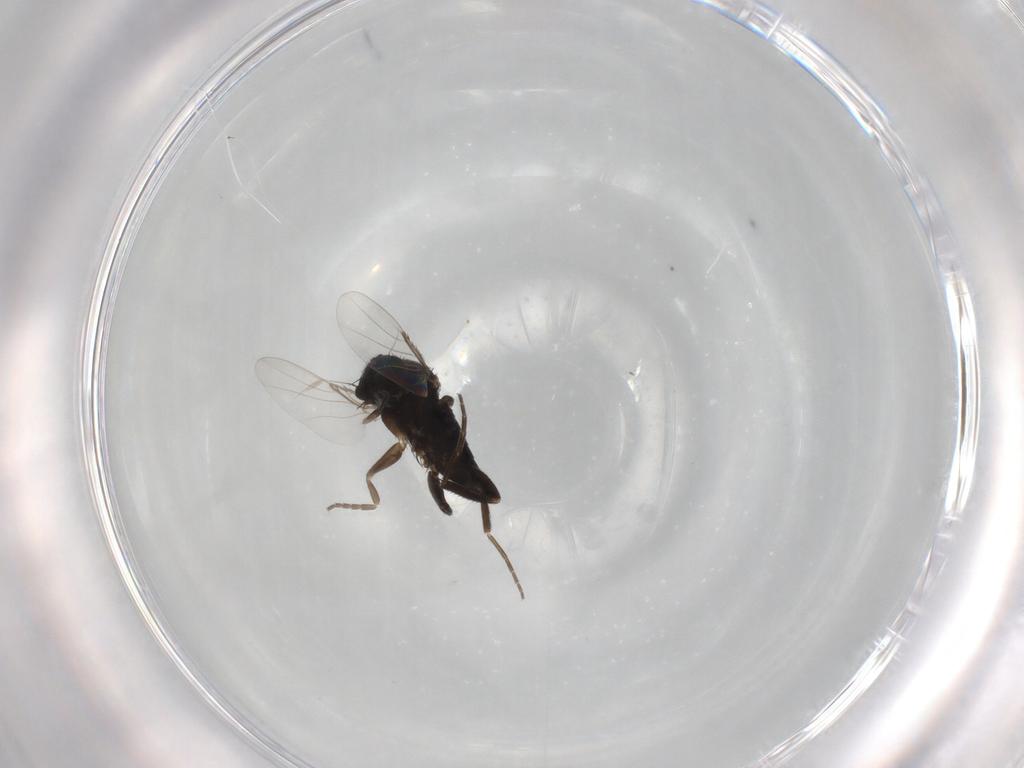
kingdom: Animalia
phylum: Arthropoda
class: Insecta
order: Diptera
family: Phoridae
